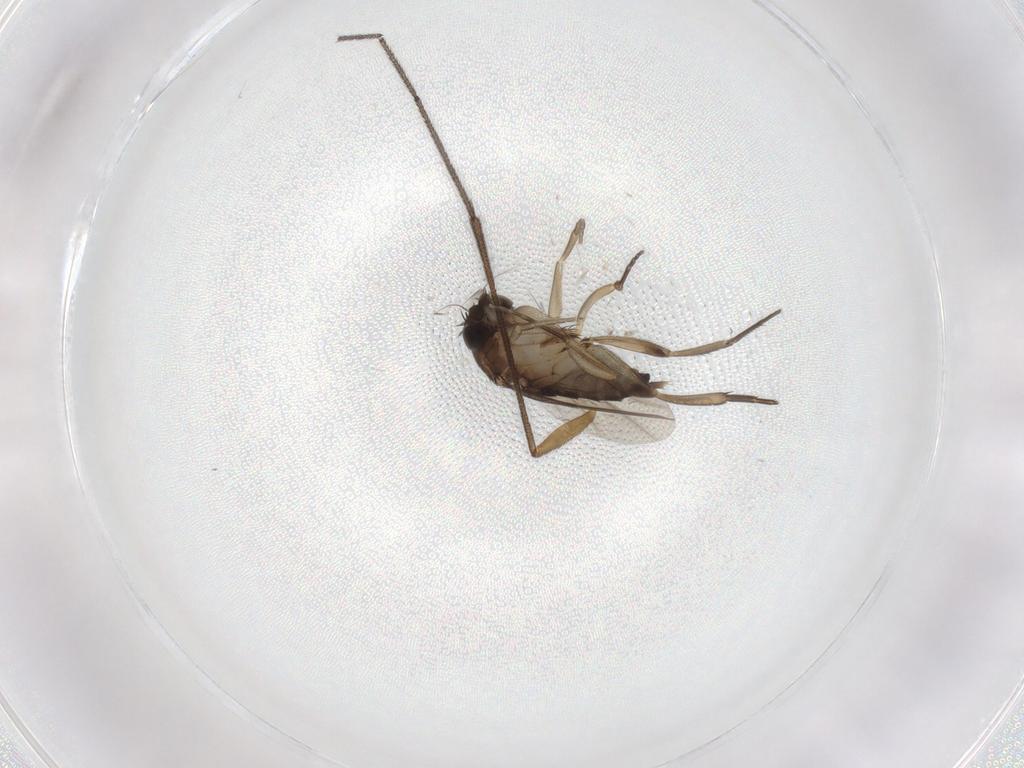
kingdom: Animalia
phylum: Arthropoda
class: Insecta
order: Diptera
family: Phoridae
